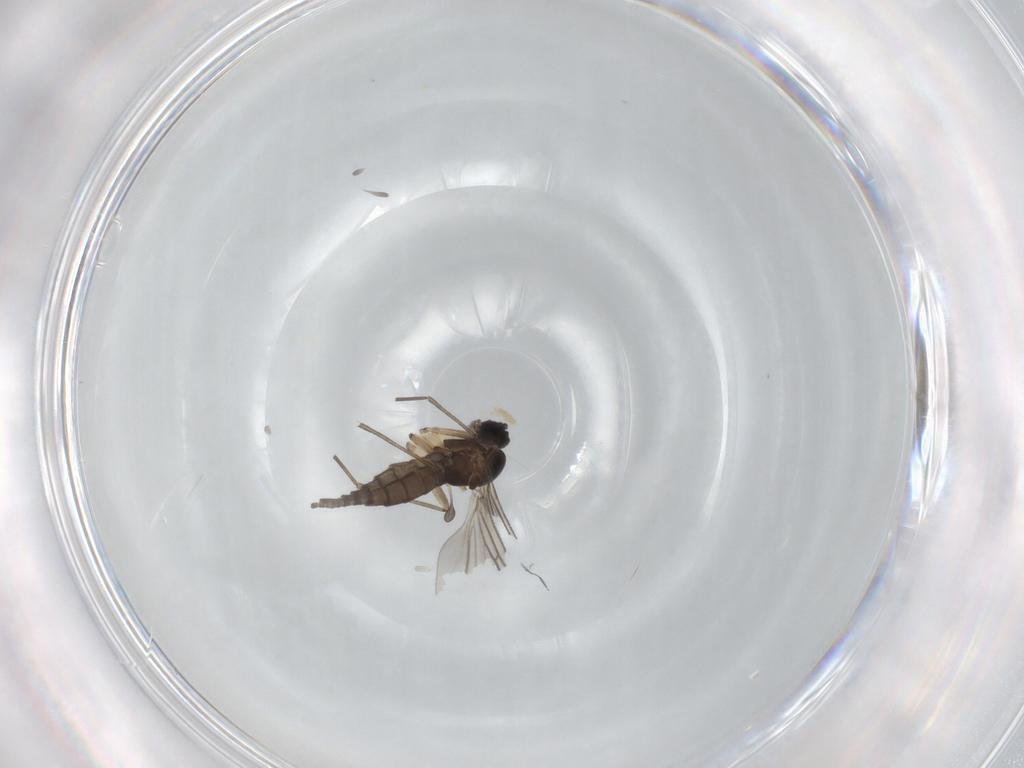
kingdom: Animalia
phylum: Arthropoda
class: Insecta
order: Diptera
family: Sciaridae
